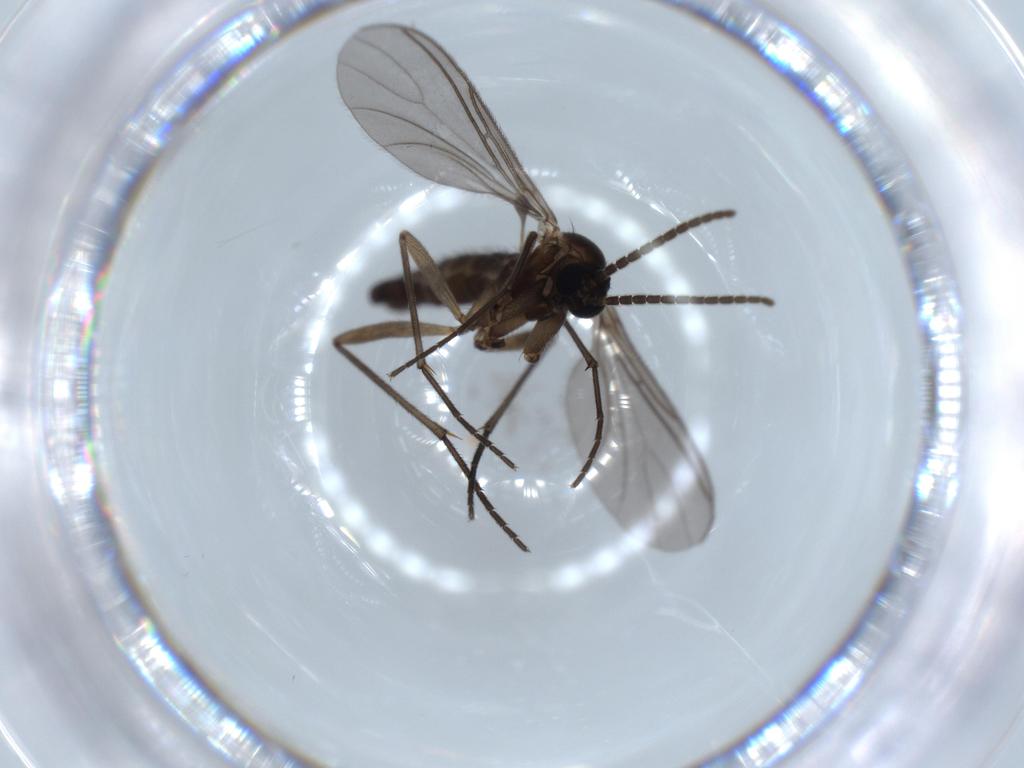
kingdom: Animalia
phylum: Arthropoda
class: Insecta
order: Diptera
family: Sciaridae
